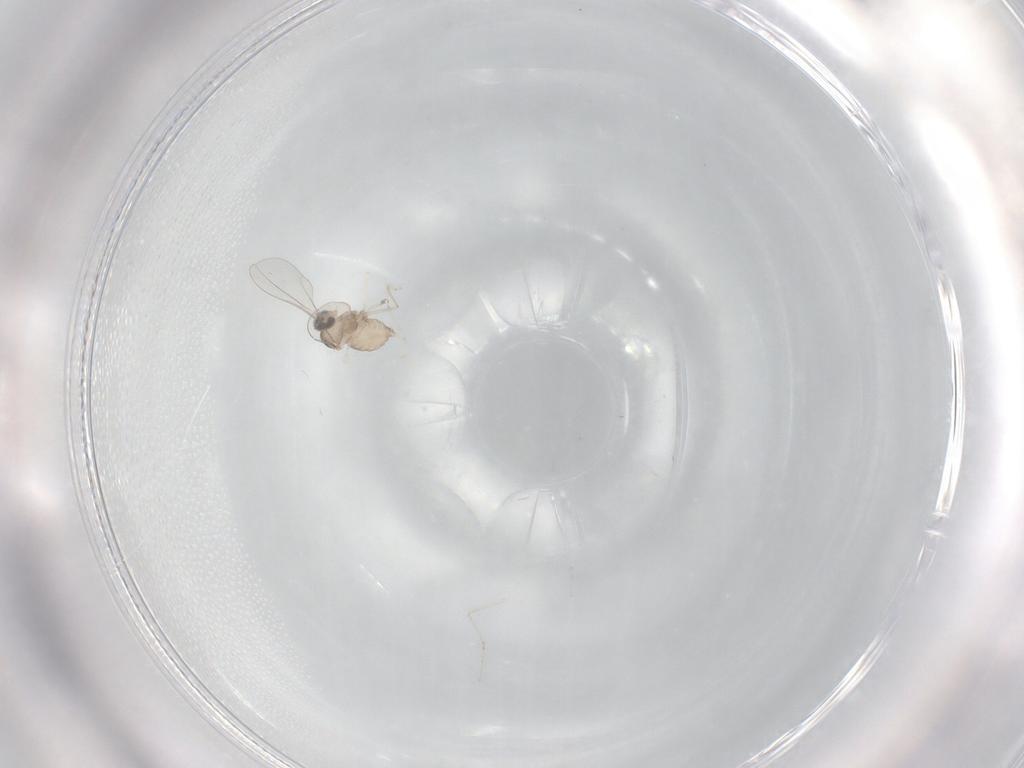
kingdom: Animalia
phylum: Arthropoda
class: Insecta
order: Diptera
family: Cecidomyiidae
